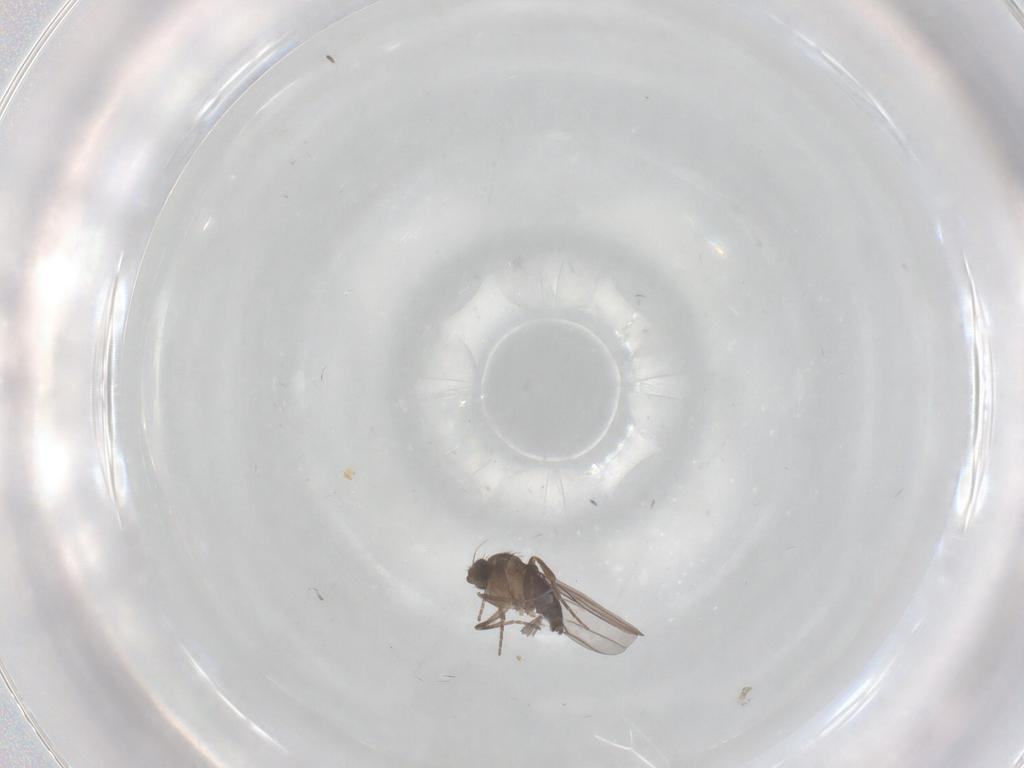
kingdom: Animalia
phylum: Arthropoda
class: Insecta
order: Diptera
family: Phoridae
